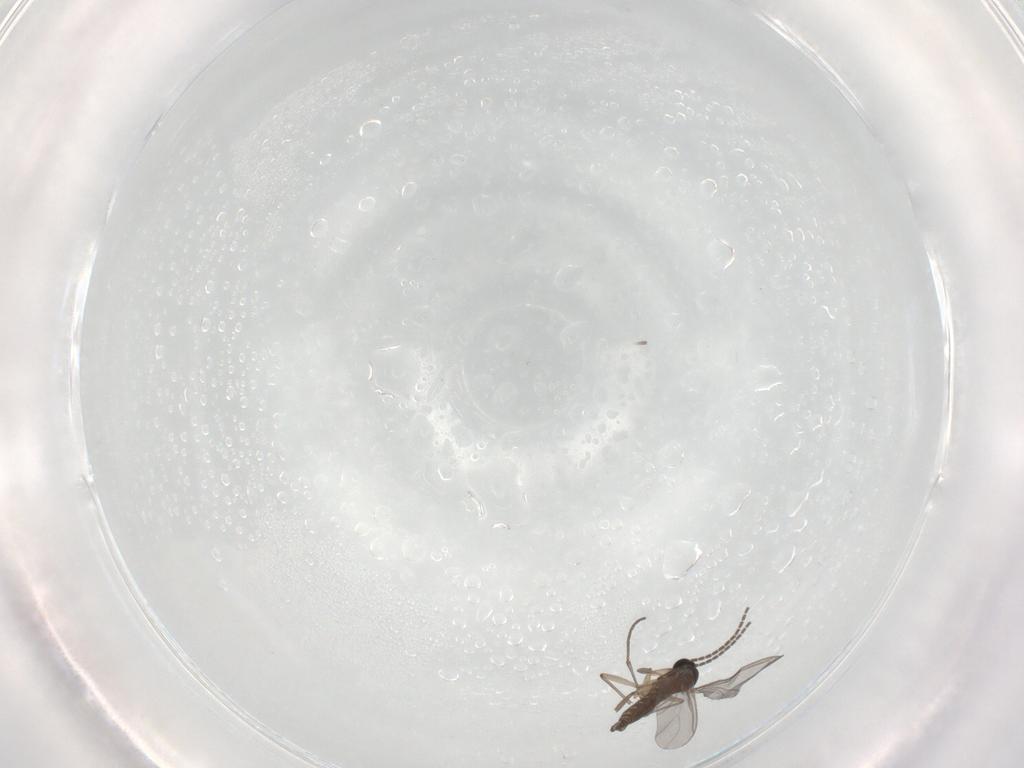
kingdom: Animalia
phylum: Arthropoda
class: Insecta
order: Diptera
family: Sciaridae
